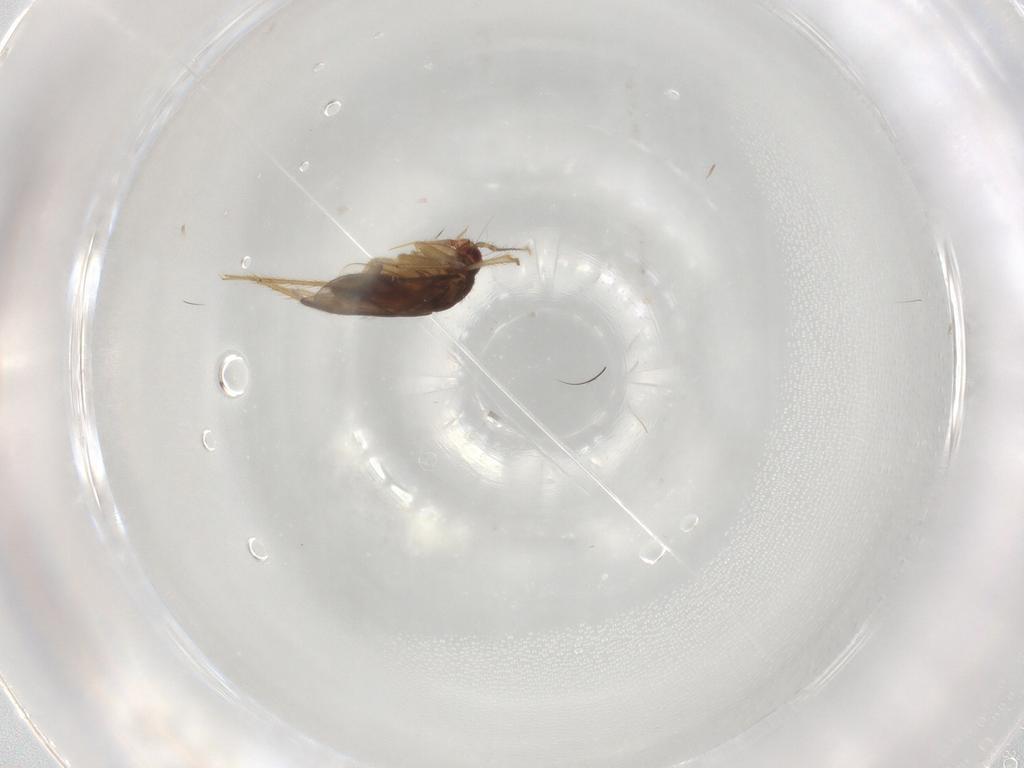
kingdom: Animalia
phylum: Arthropoda
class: Insecta
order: Hemiptera
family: Ceratocombidae
